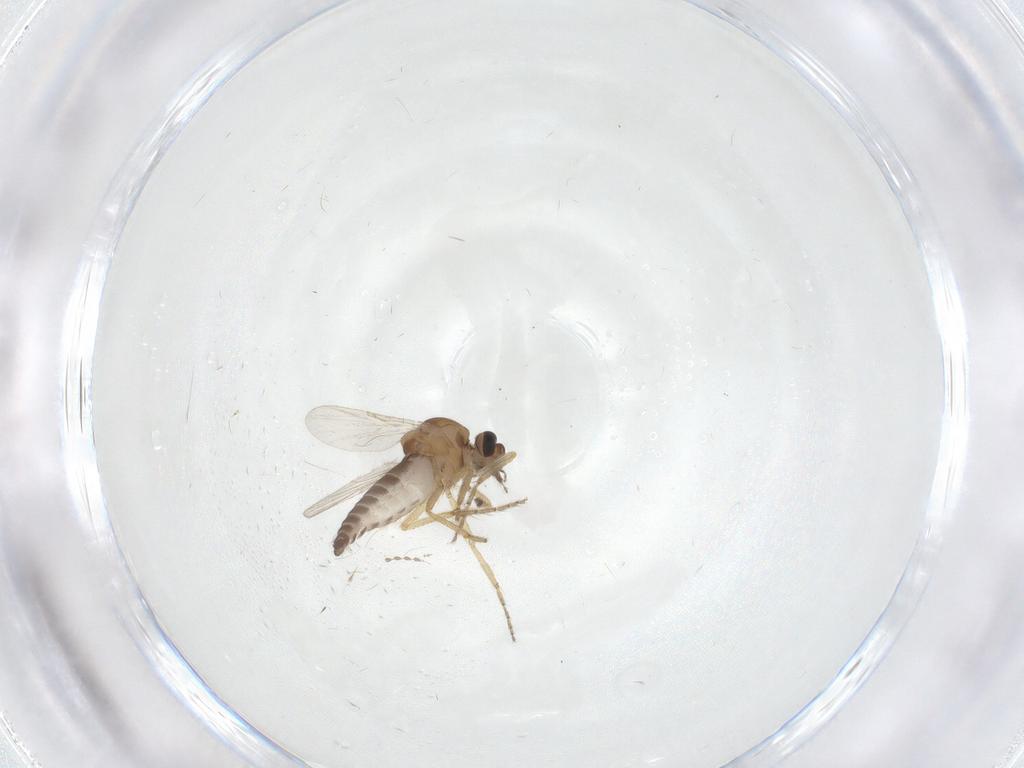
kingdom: Animalia
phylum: Arthropoda
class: Insecta
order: Diptera
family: Ceratopogonidae
